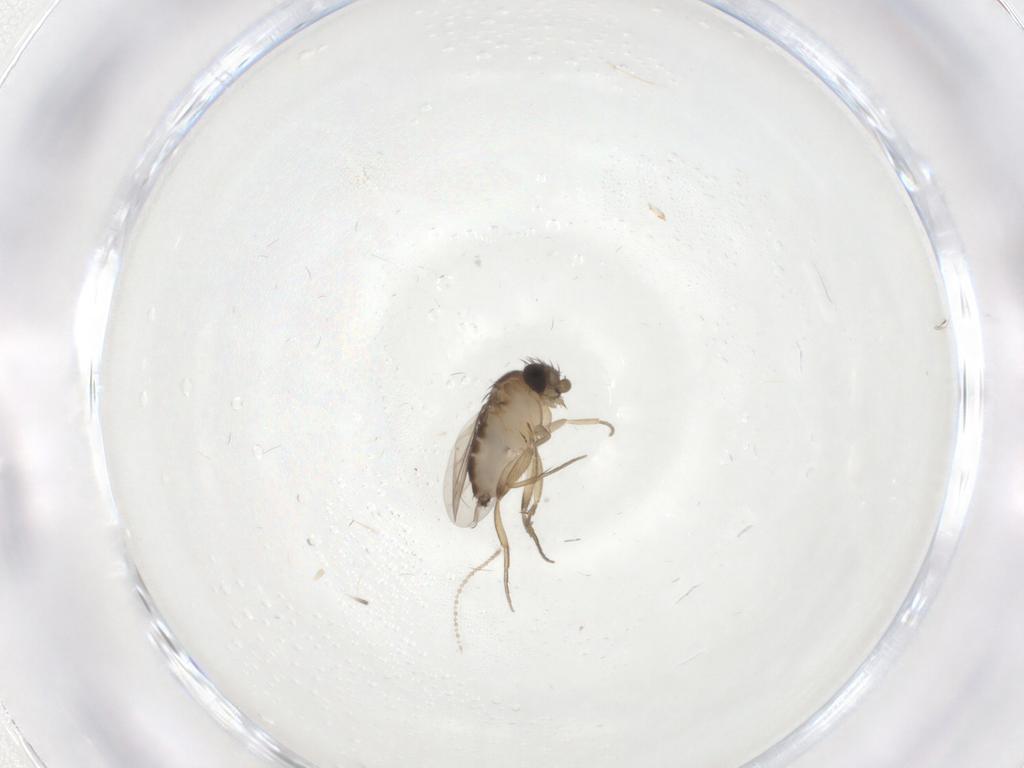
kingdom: Animalia
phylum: Arthropoda
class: Insecta
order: Diptera
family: Cecidomyiidae
